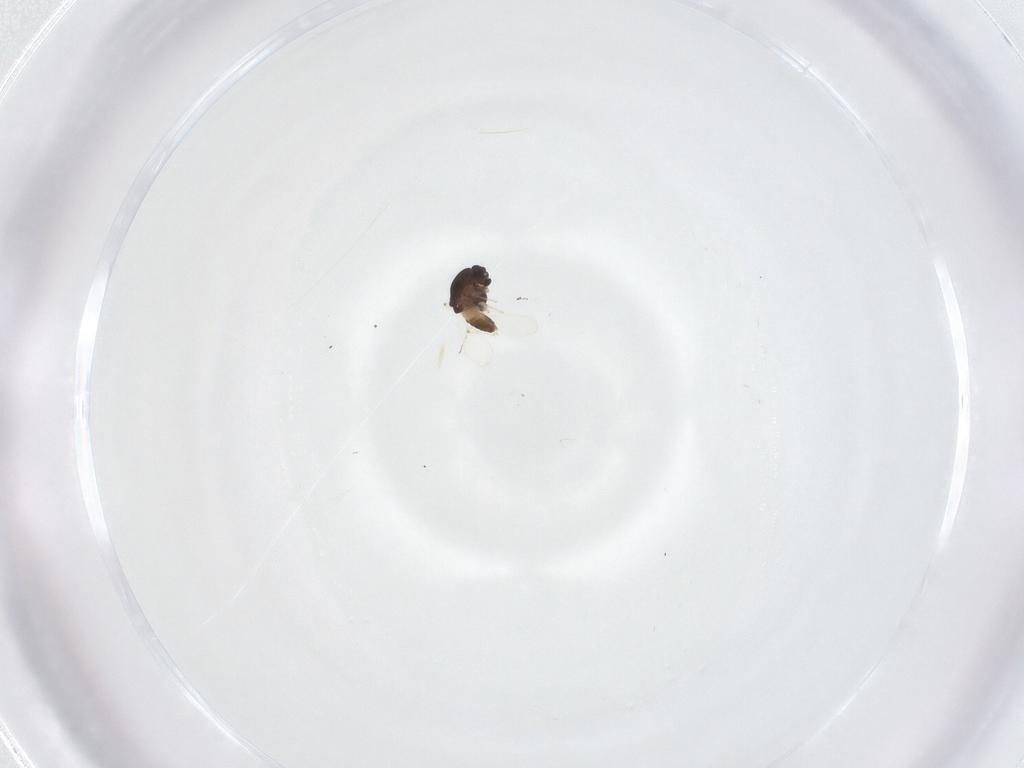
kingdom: Animalia
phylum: Arthropoda
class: Insecta
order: Diptera
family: Chironomidae
